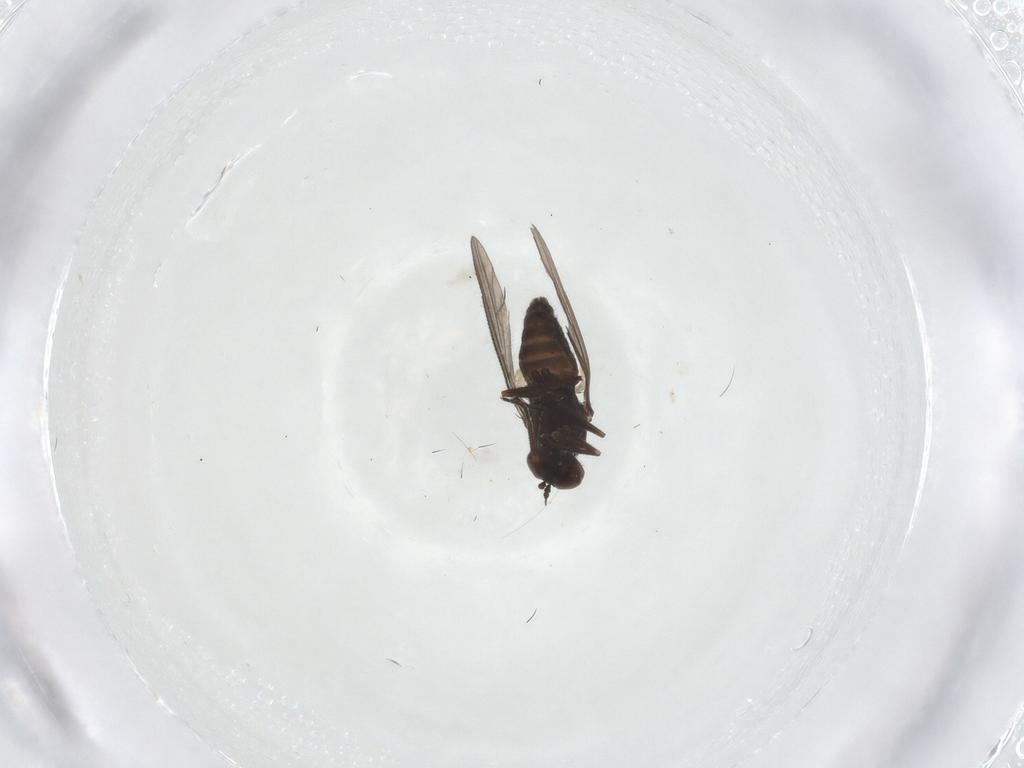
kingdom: Animalia
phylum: Arthropoda
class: Insecta
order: Diptera
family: Dolichopodidae
